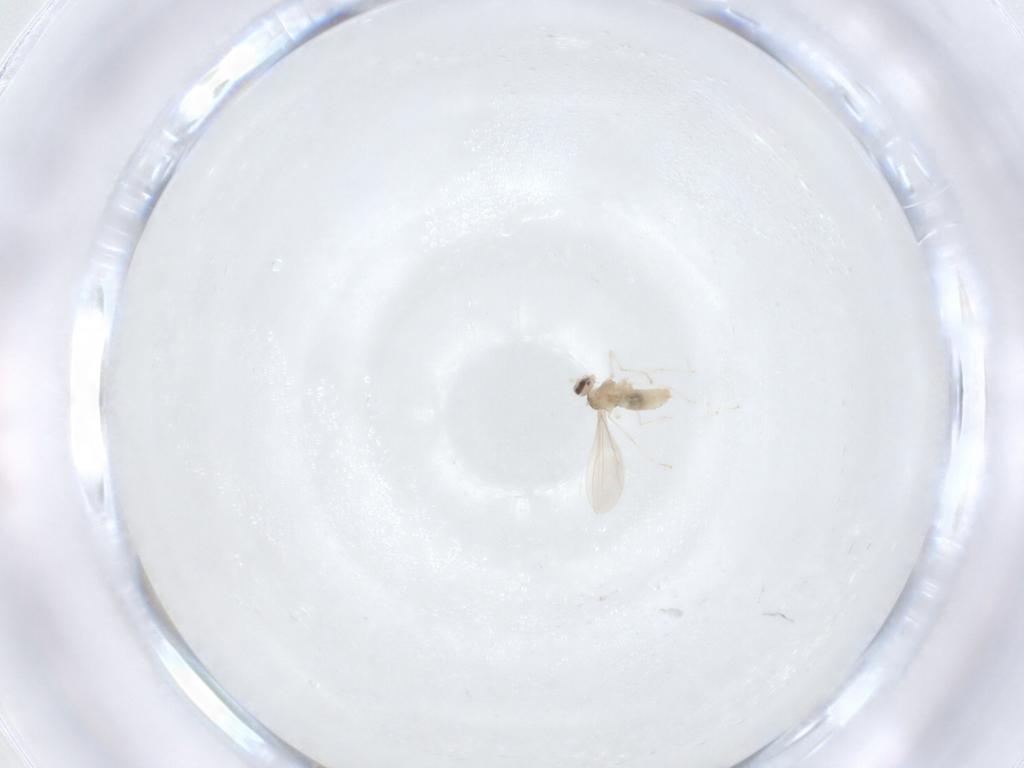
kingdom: Animalia
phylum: Arthropoda
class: Insecta
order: Diptera
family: Cecidomyiidae
